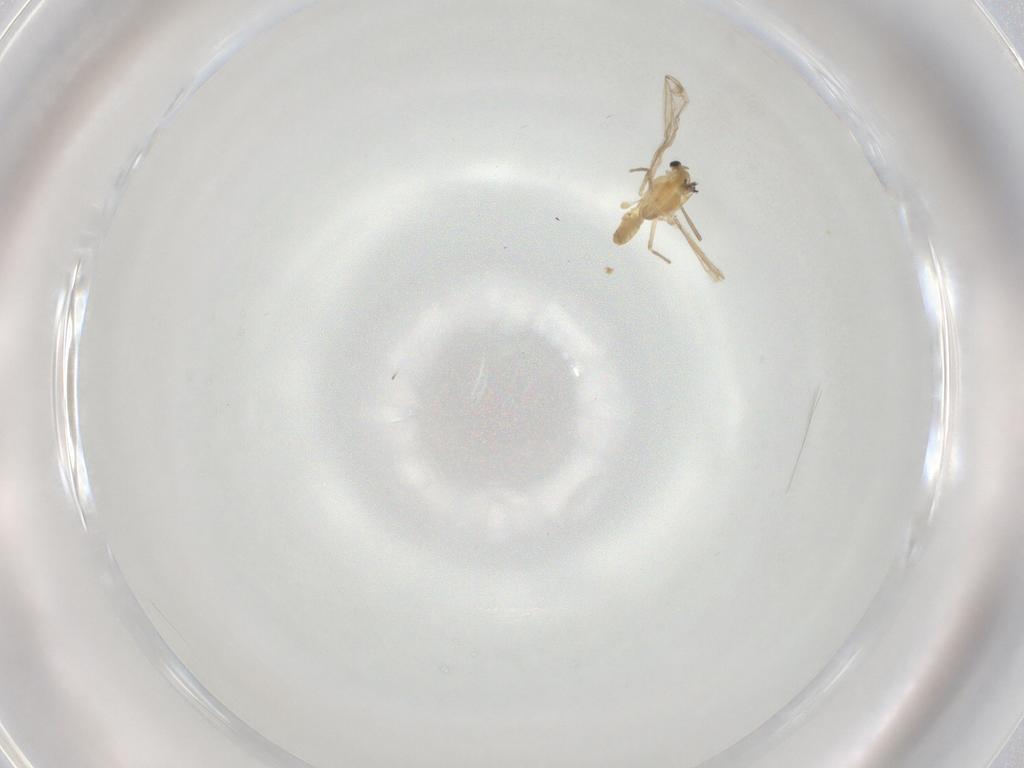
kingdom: Animalia
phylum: Arthropoda
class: Insecta
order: Diptera
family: Cecidomyiidae
